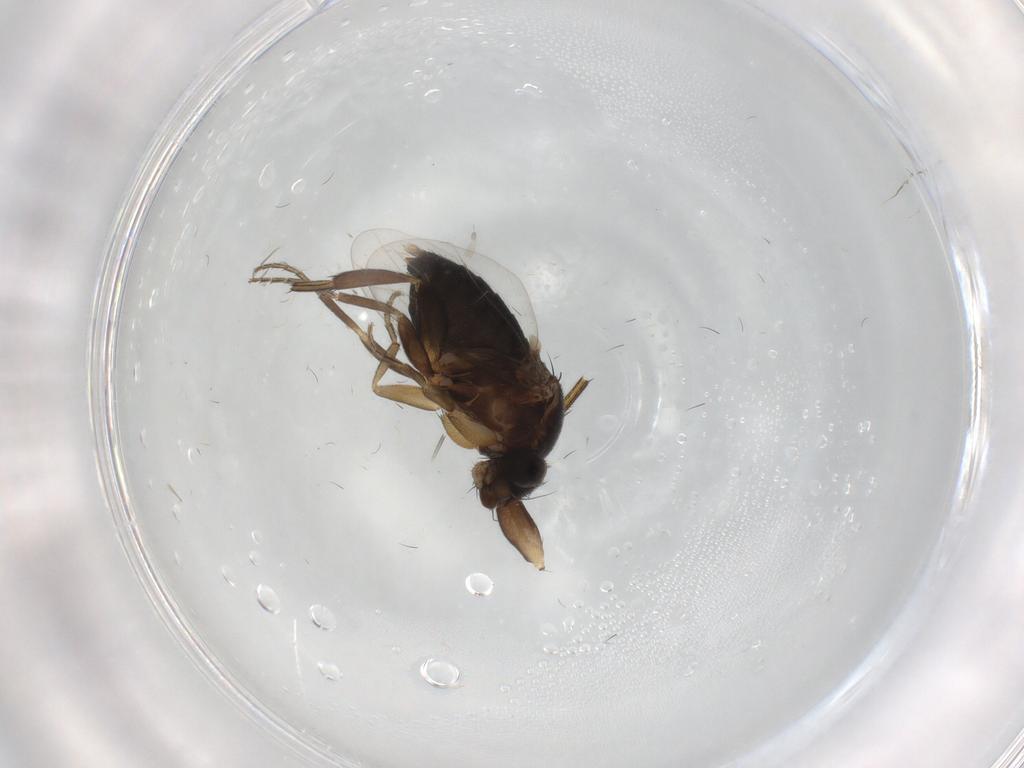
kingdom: Animalia
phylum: Arthropoda
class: Insecta
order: Diptera
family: Phoridae
